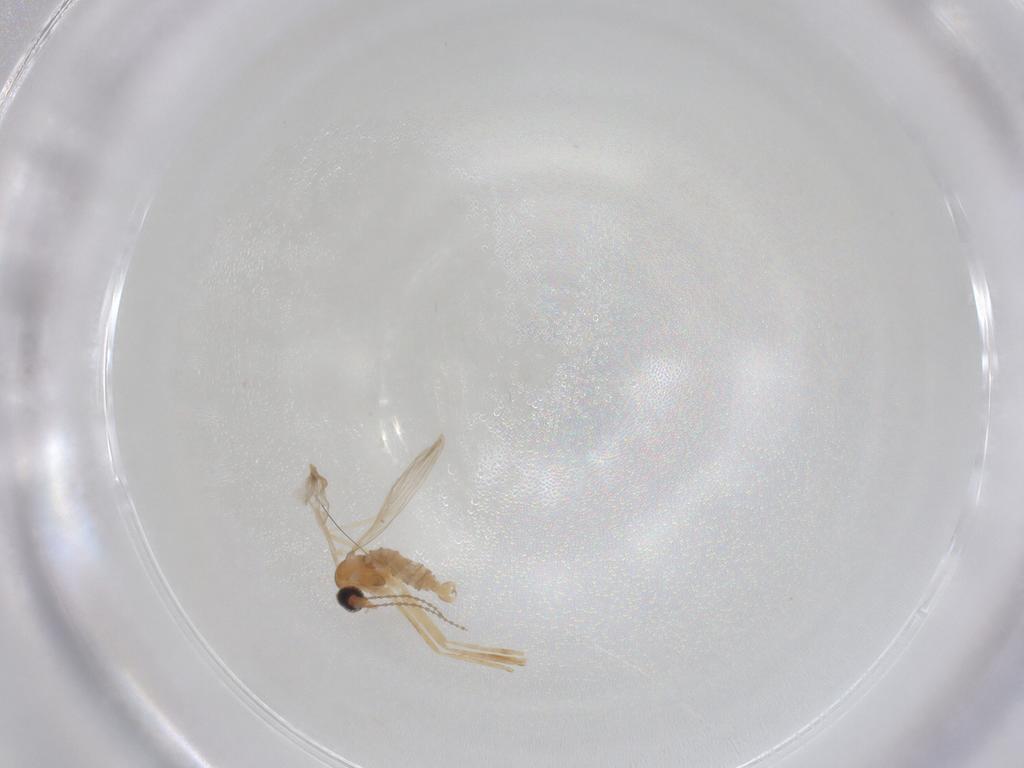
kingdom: Animalia
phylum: Arthropoda
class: Insecta
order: Diptera
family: Cecidomyiidae
